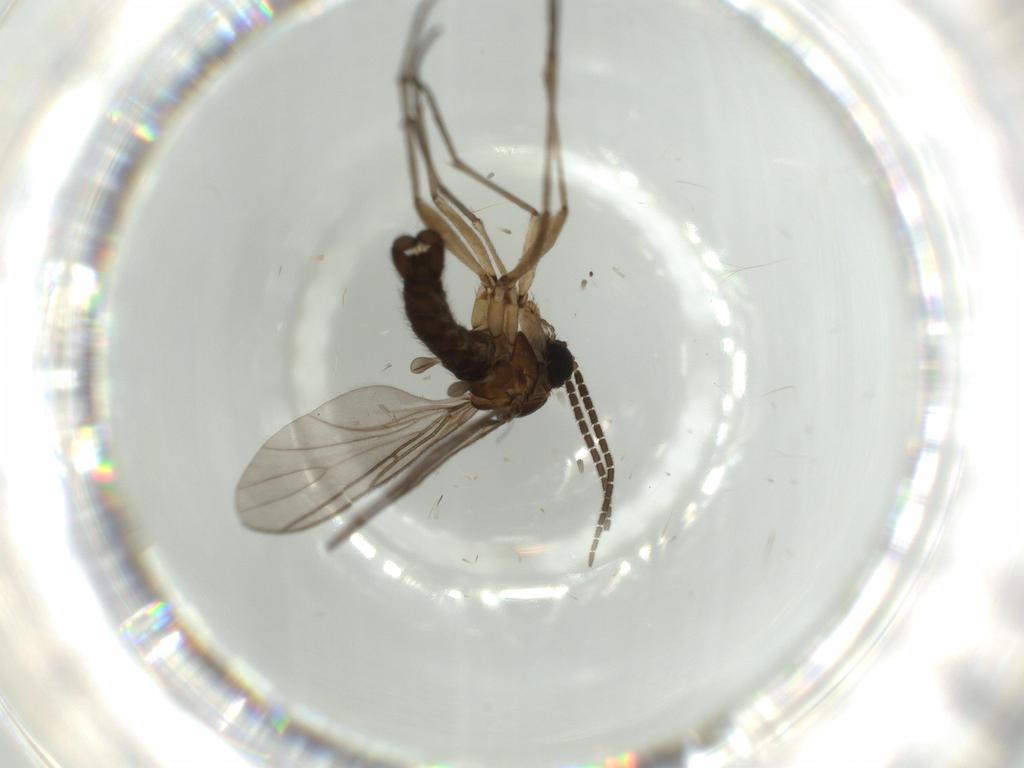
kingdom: Animalia
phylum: Arthropoda
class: Insecta
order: Diptera
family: Sciaridae
